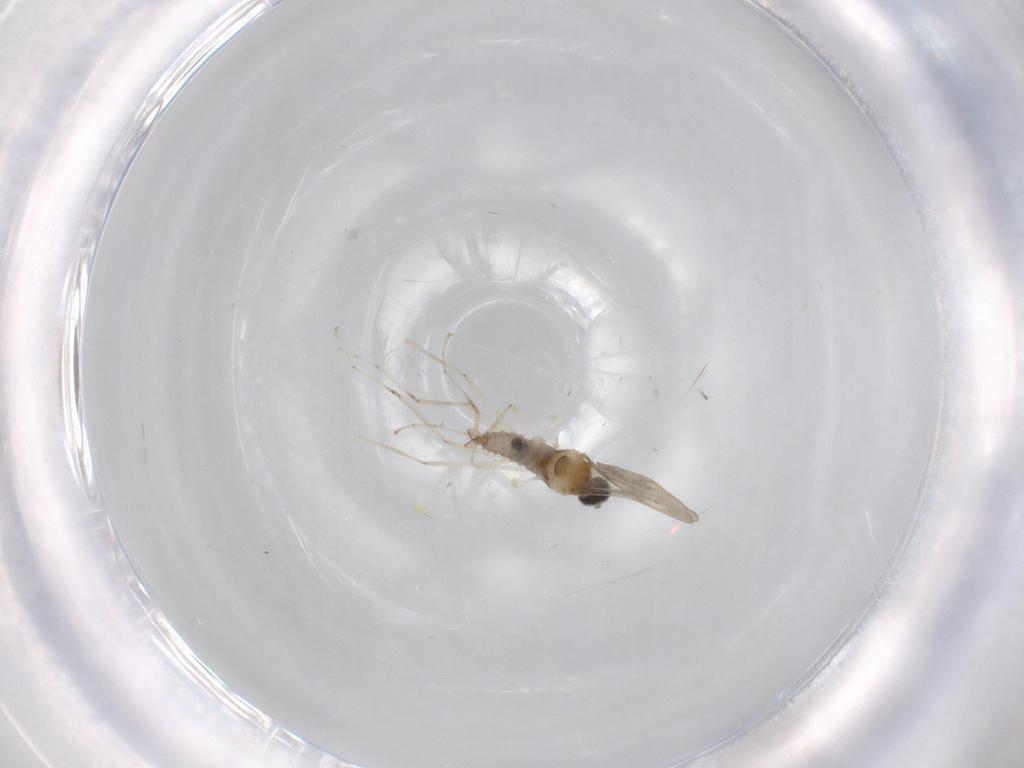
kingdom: Animalia
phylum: Arthropoda
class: Insecta
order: Diptera
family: Cecidomyiidae
